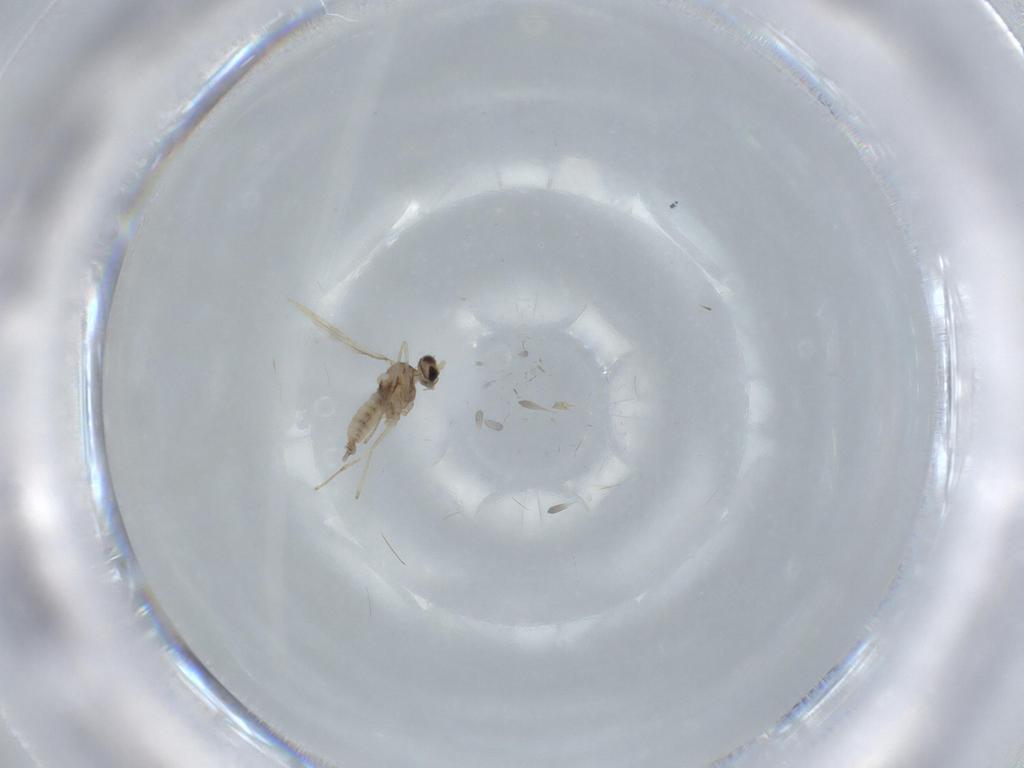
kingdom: Animalia
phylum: Arthropoda
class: Insecta
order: Diptera
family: Cecidomyiidae
